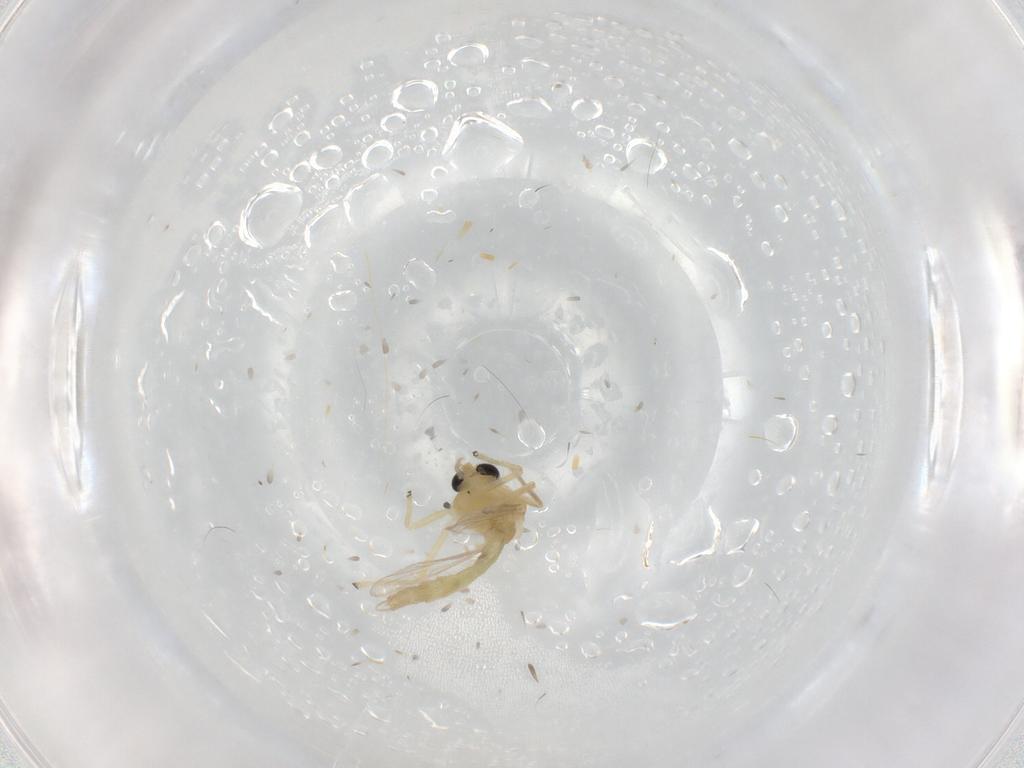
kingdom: Animalia
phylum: Arthropoda
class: Insecta
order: Diptera
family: Chironomidae
